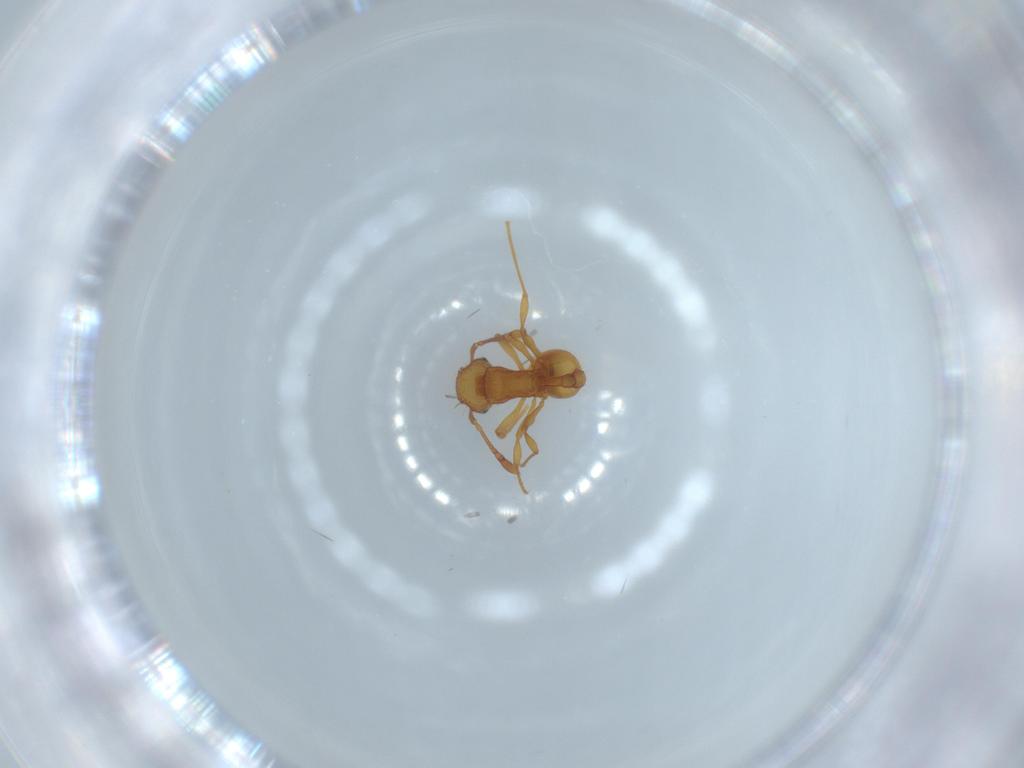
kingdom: Animalia
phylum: Arthropoda
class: Insecta
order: Hymenoptera
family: Formicidae
